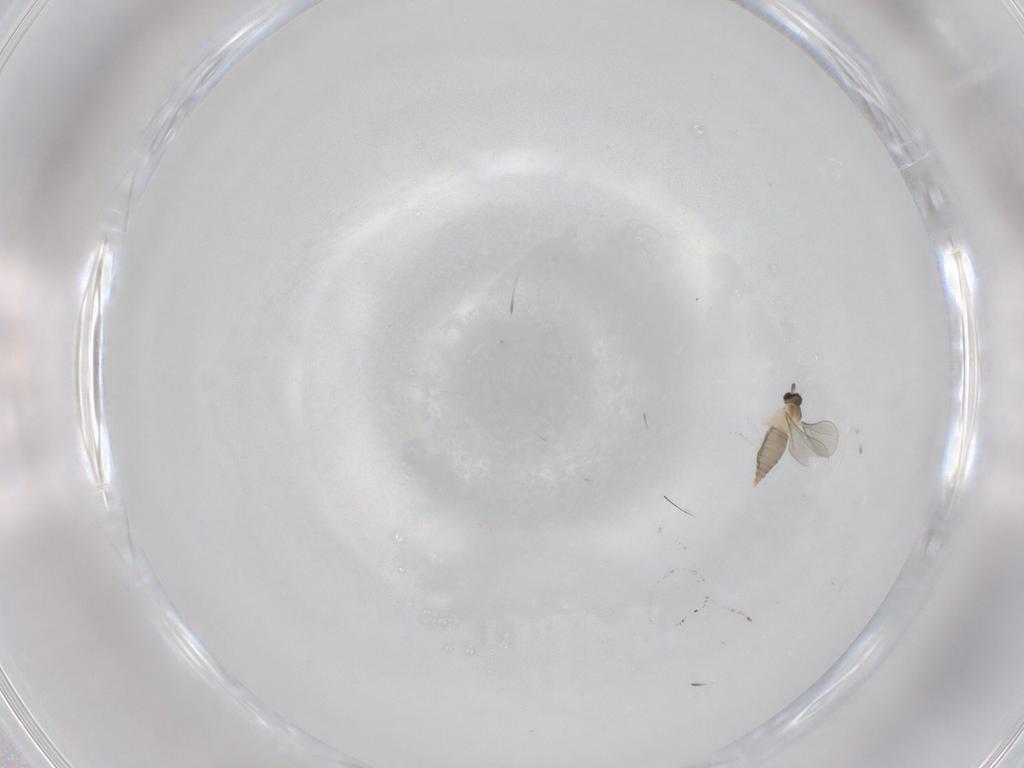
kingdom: Animalia
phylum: Arthropoda
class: Insecta
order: Diptera
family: Cecidomyiidae
